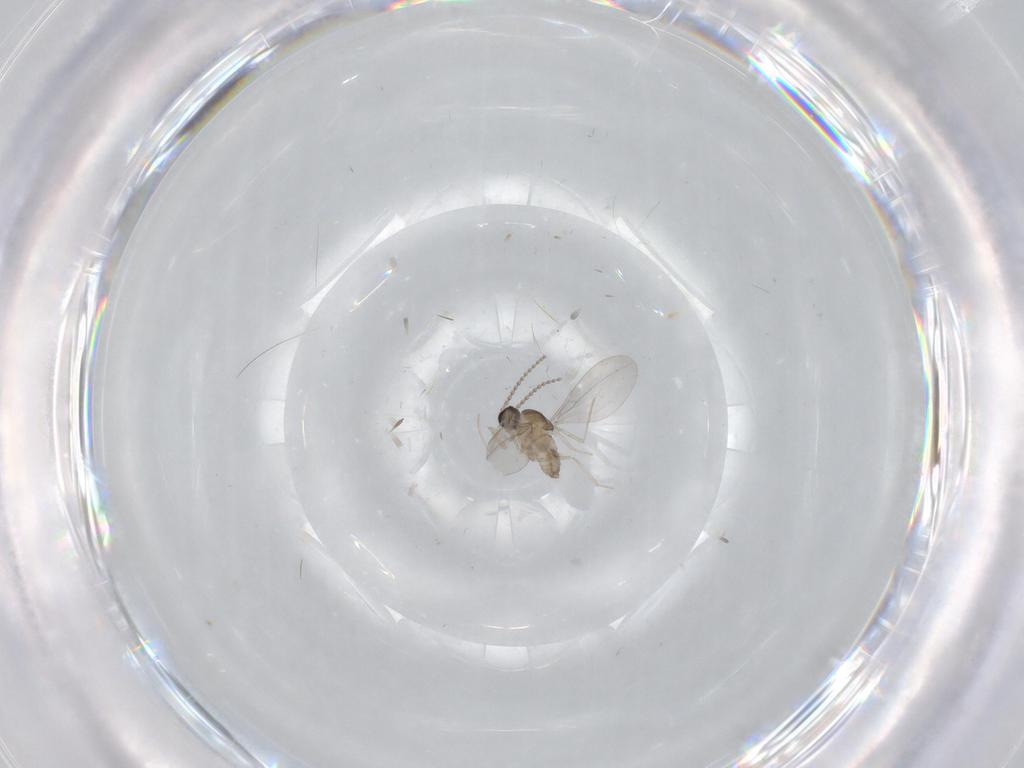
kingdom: Animalia
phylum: Arthropoda
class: Insecta
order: Diptera
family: Cecidomyiidae
